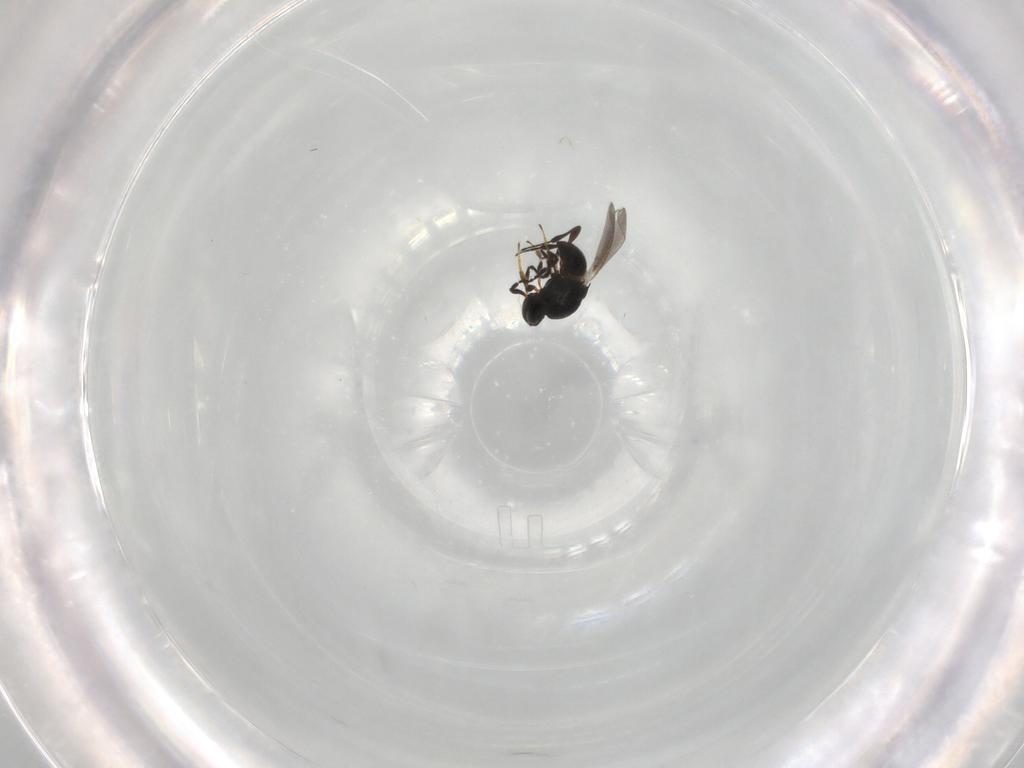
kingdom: Animalia
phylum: Arthropoda
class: Insecta
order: Hymenoptera
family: Platygastridae
